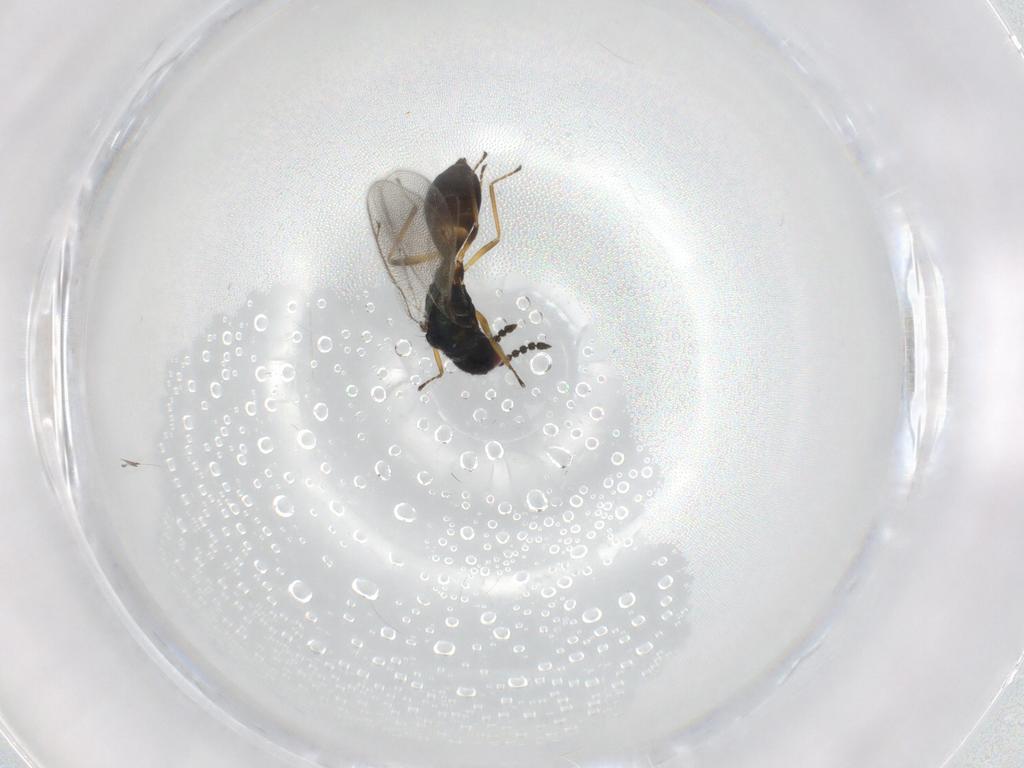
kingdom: Animalia
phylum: Arthropoda
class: Insecta
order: Hymenoptera
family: Eulophidae
